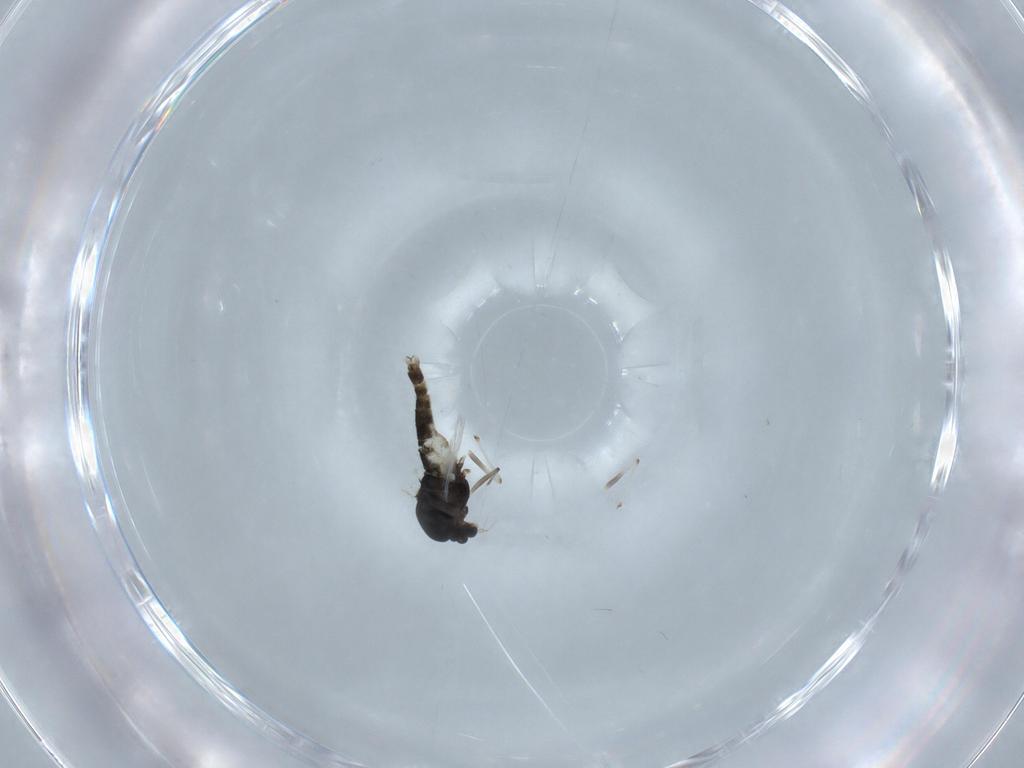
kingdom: Animalia
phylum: Arthropoda
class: Insecta
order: Diptera
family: Chironomidae
